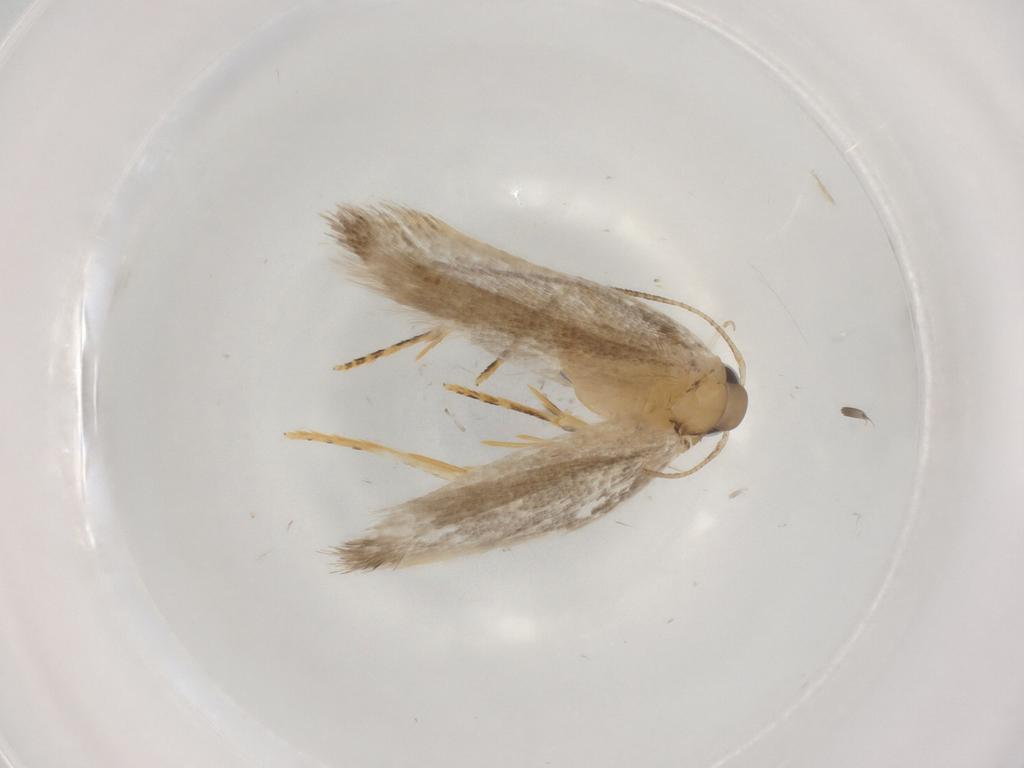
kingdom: Animalia
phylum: Arthropoda
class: Insecta
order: Lepidoptera
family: Autostichidae
